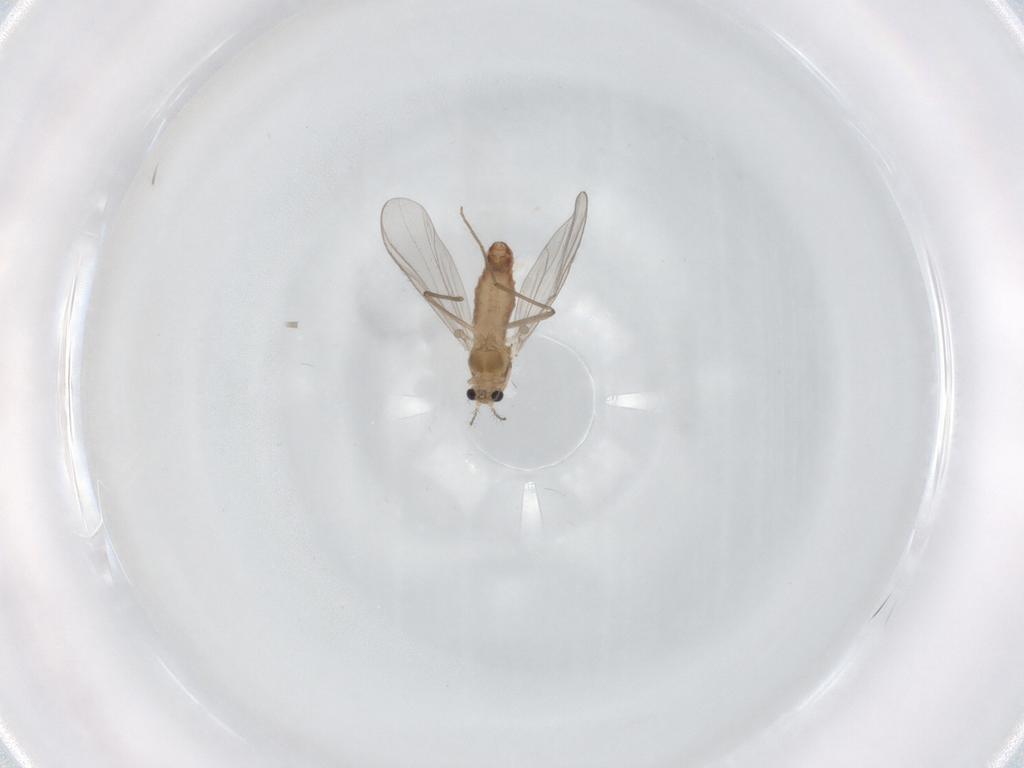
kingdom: Animalia
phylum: Arthropoda
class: Insecta
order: Diptera
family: Chironomidae
